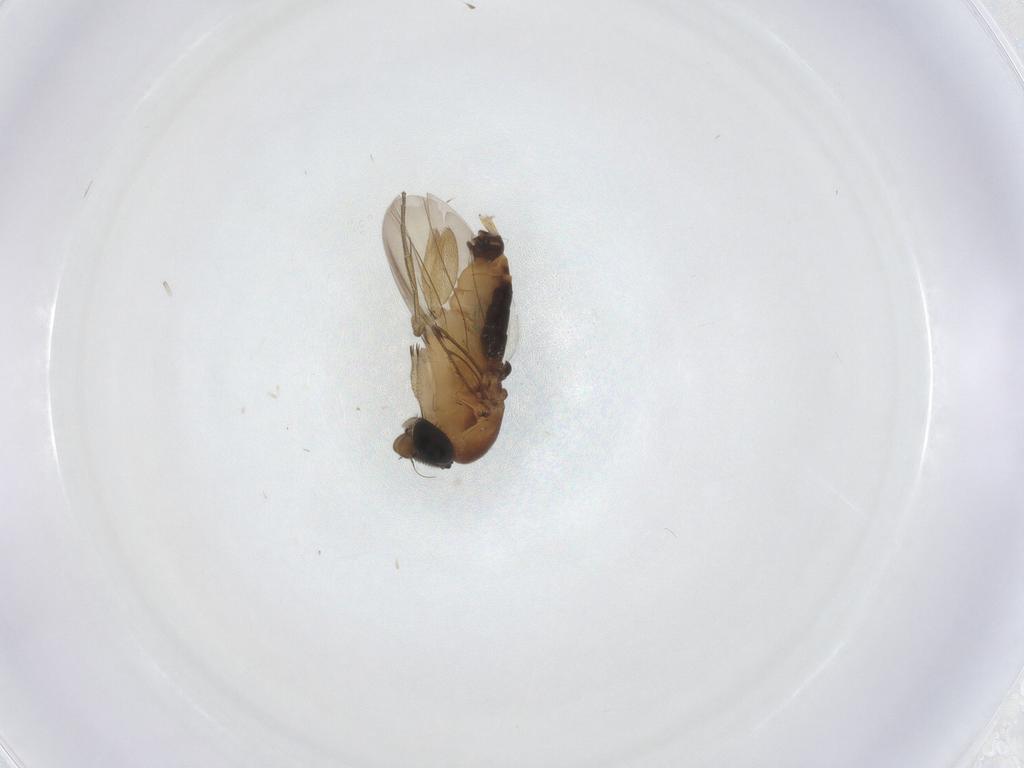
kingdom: Animalia
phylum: Arthropoda
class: Insecta
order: Diptera
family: Phoridae
